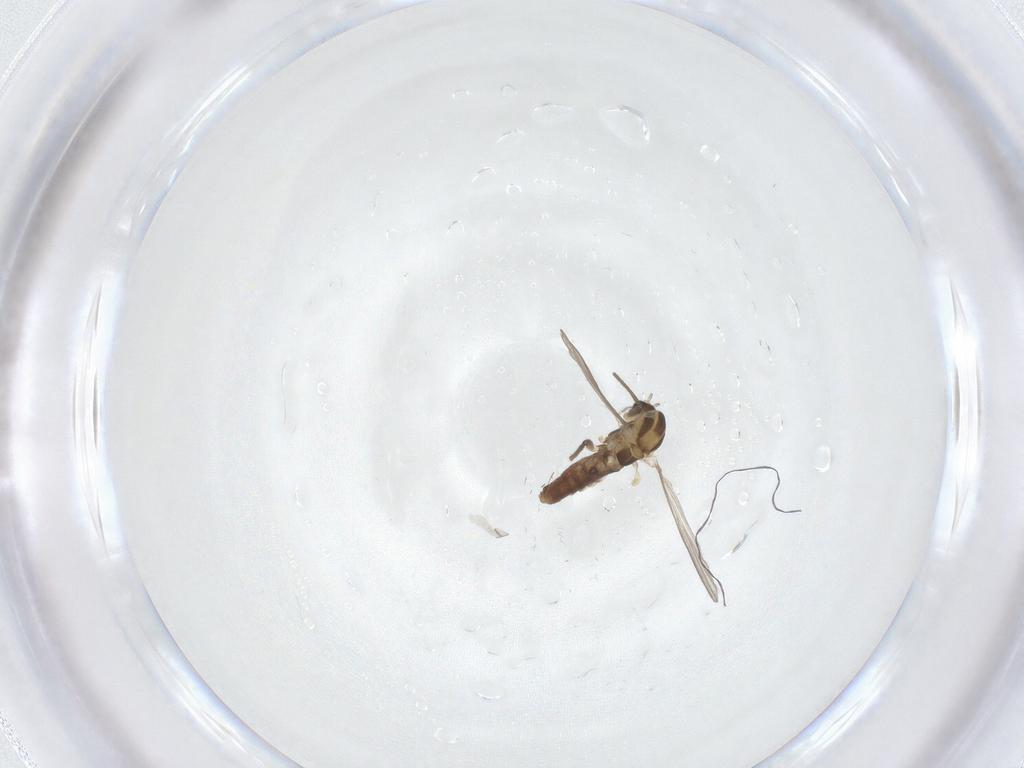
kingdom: Animalia
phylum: Arthropoda
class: Insecta
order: Diptera
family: Chironomidae
